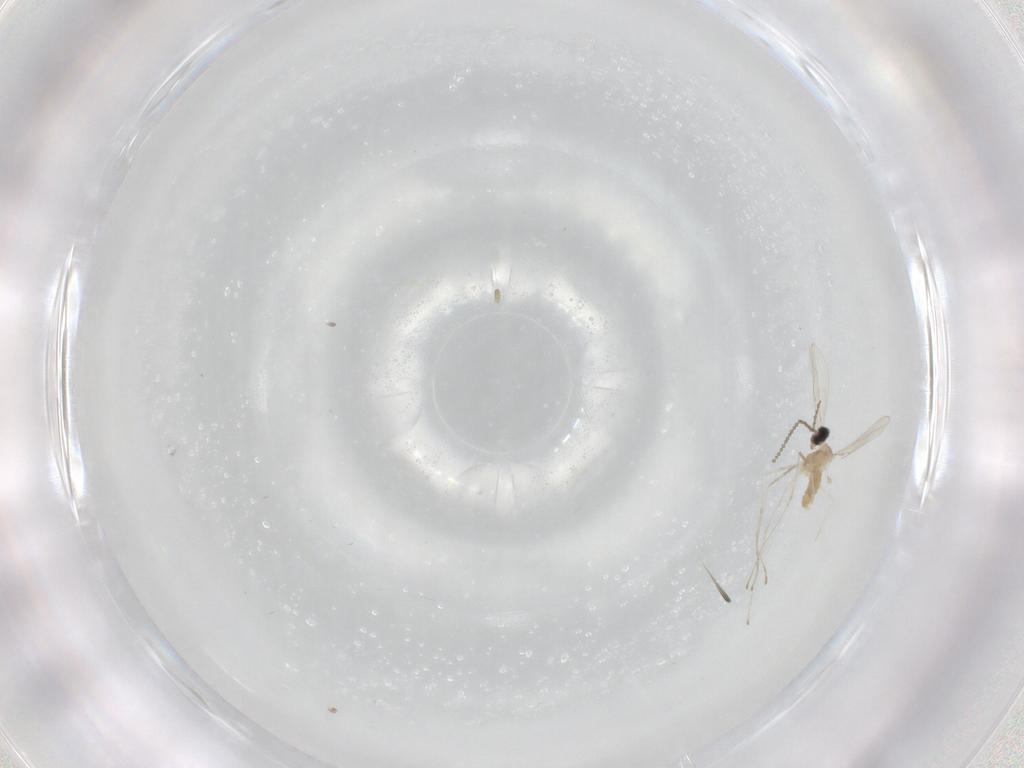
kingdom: Animalia
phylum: Arthropoda
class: Insecta
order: Diptera
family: Cecidomyiidae
